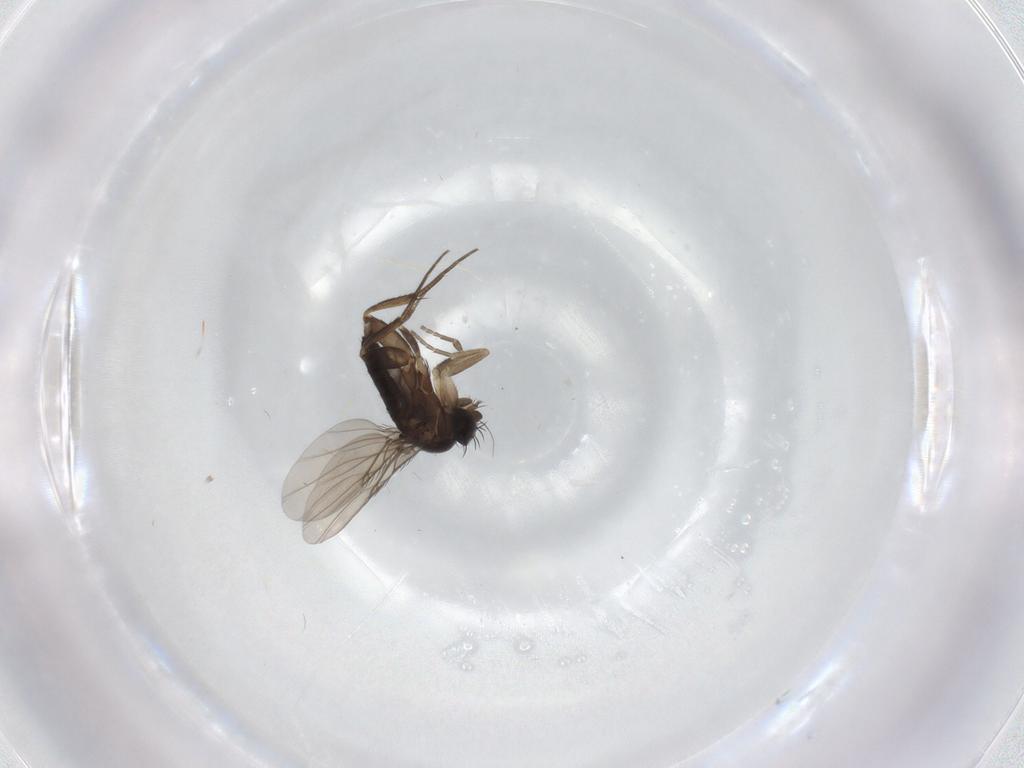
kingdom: Animalia
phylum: Arthropoda
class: Insecta
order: Diptera
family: Phoridae
